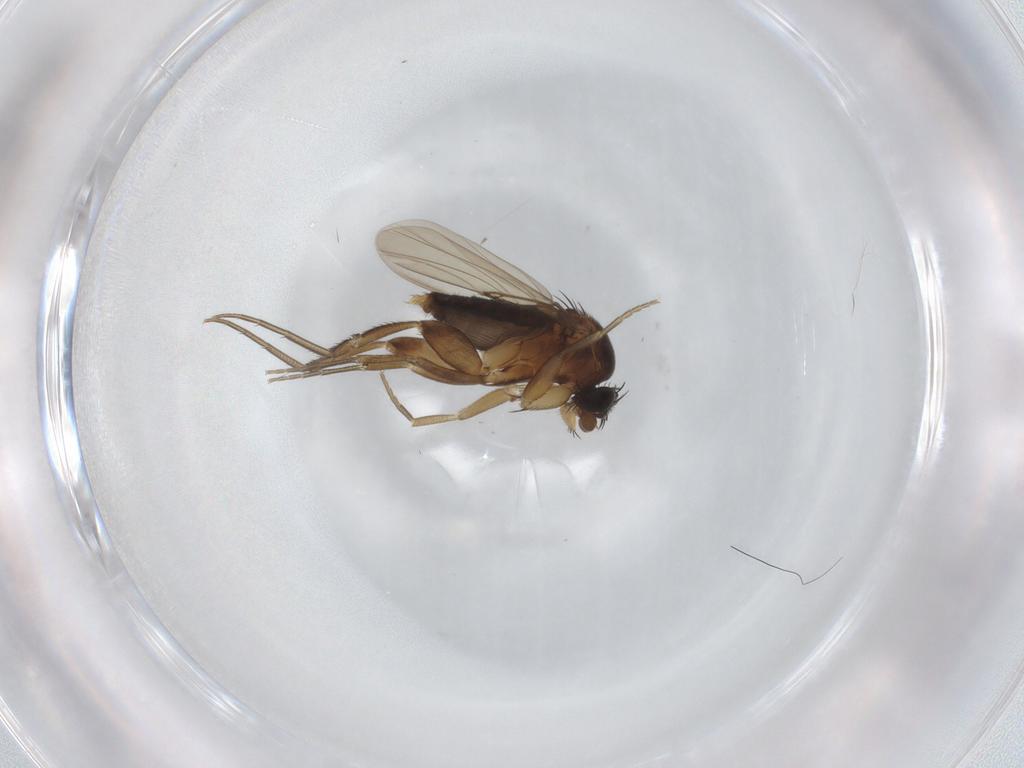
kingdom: Animalia
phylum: Arthropoda
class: Insecta
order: Diptera
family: Phoridae
